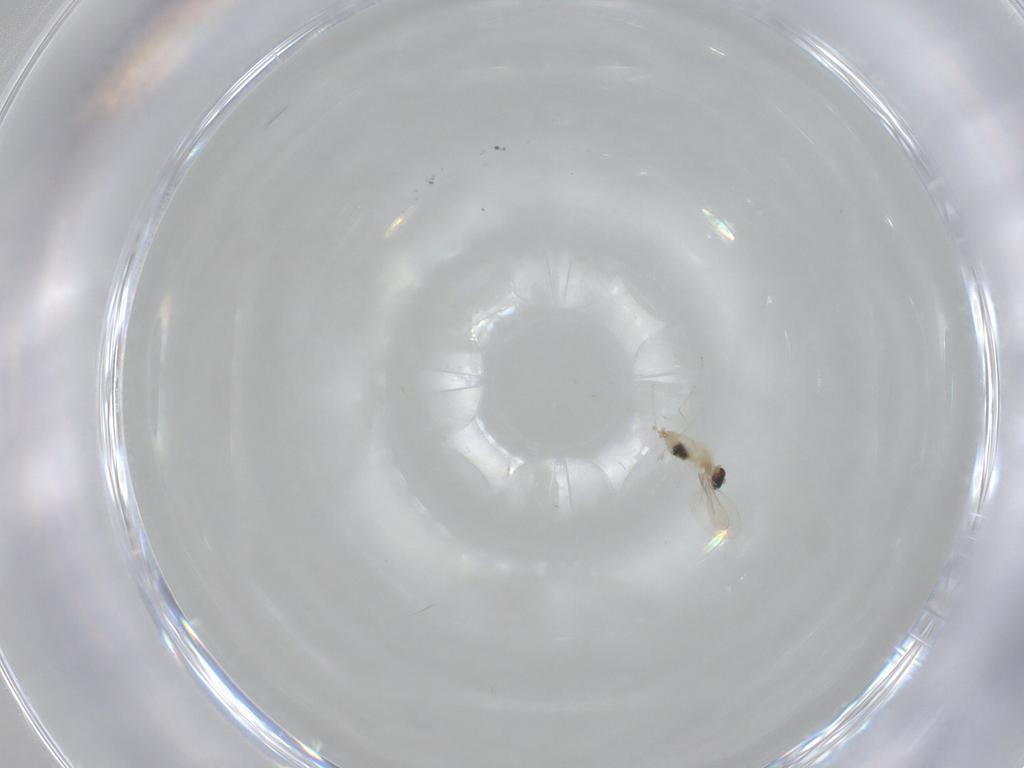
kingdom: Animalia
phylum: Arthropoda
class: Insecta
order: Diptera
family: Cecidomyiidae
